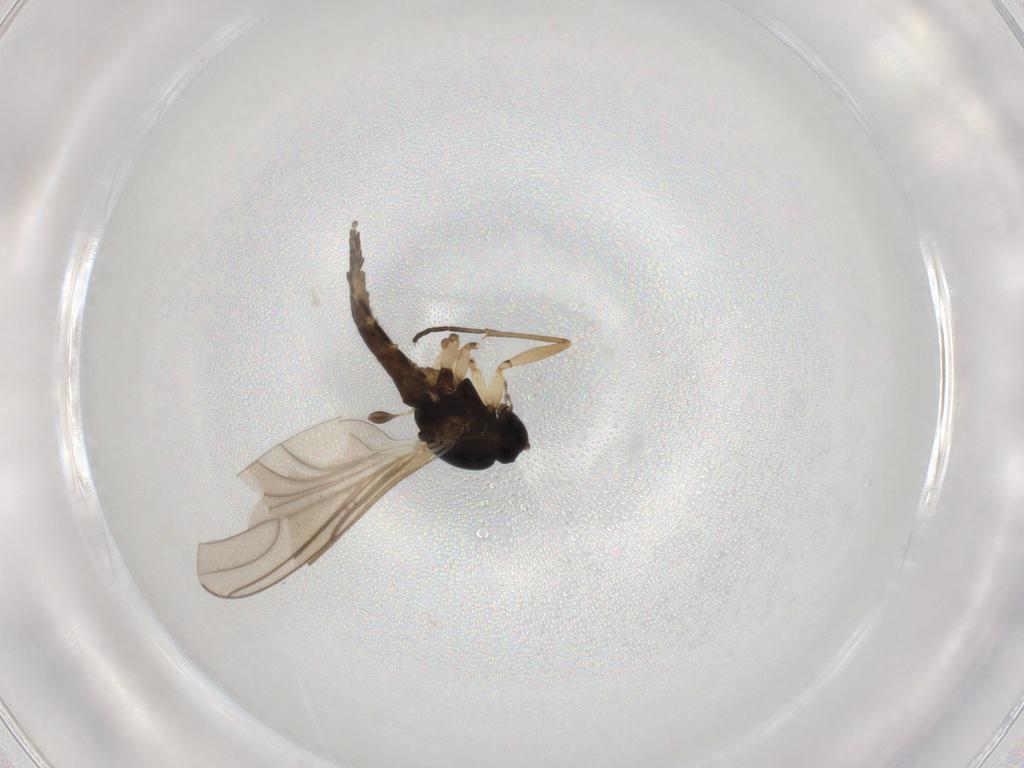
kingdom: Animalia
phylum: Arthropoda
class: Insecta
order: Diptera
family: Sciaridae
